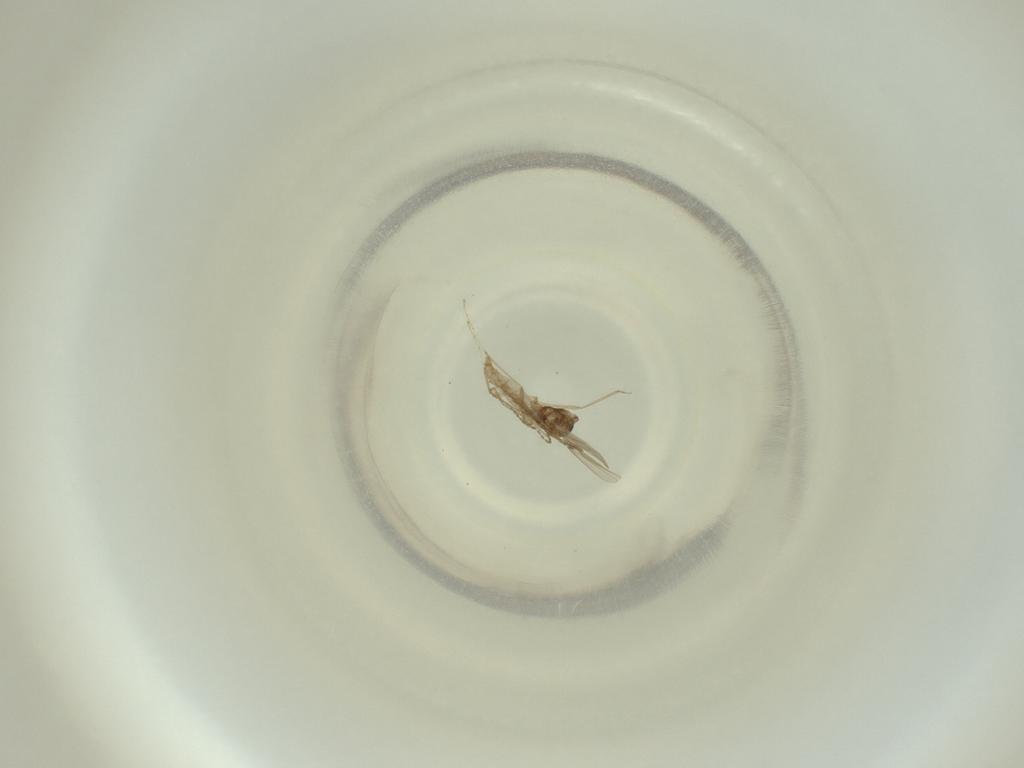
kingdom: Animalia
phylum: Arthropoda
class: Insecta
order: Diptera
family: Cecidomyiidae
